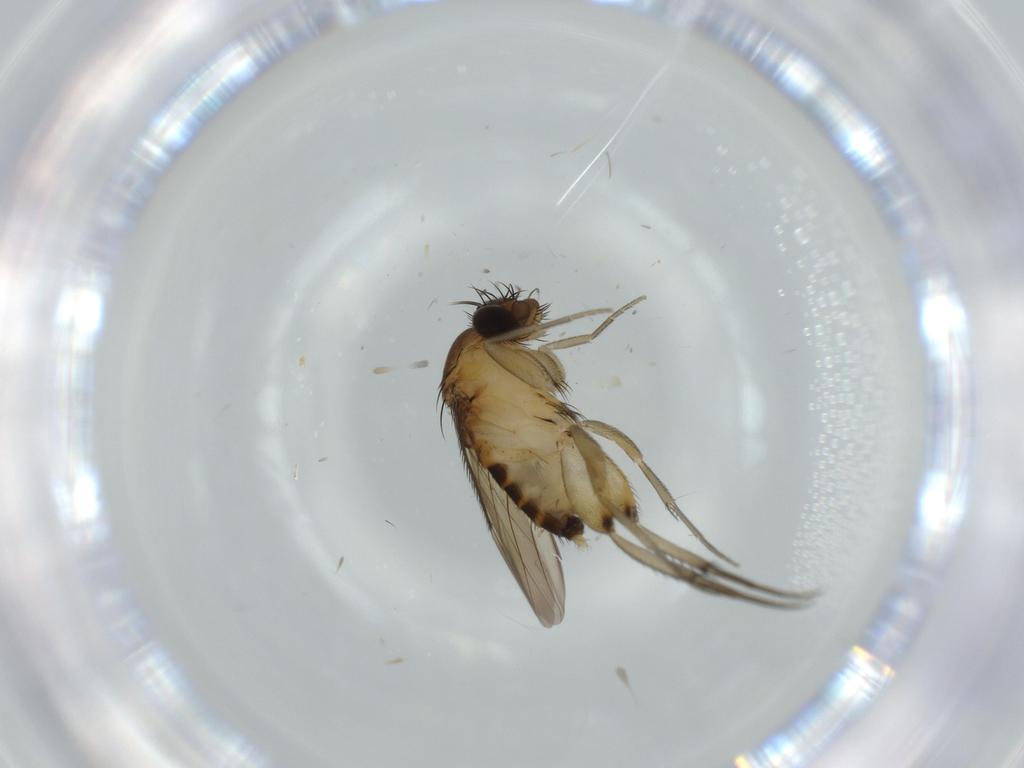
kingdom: Animalia
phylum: Arthropoda
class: Insecta
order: Diptera
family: Phoridae
